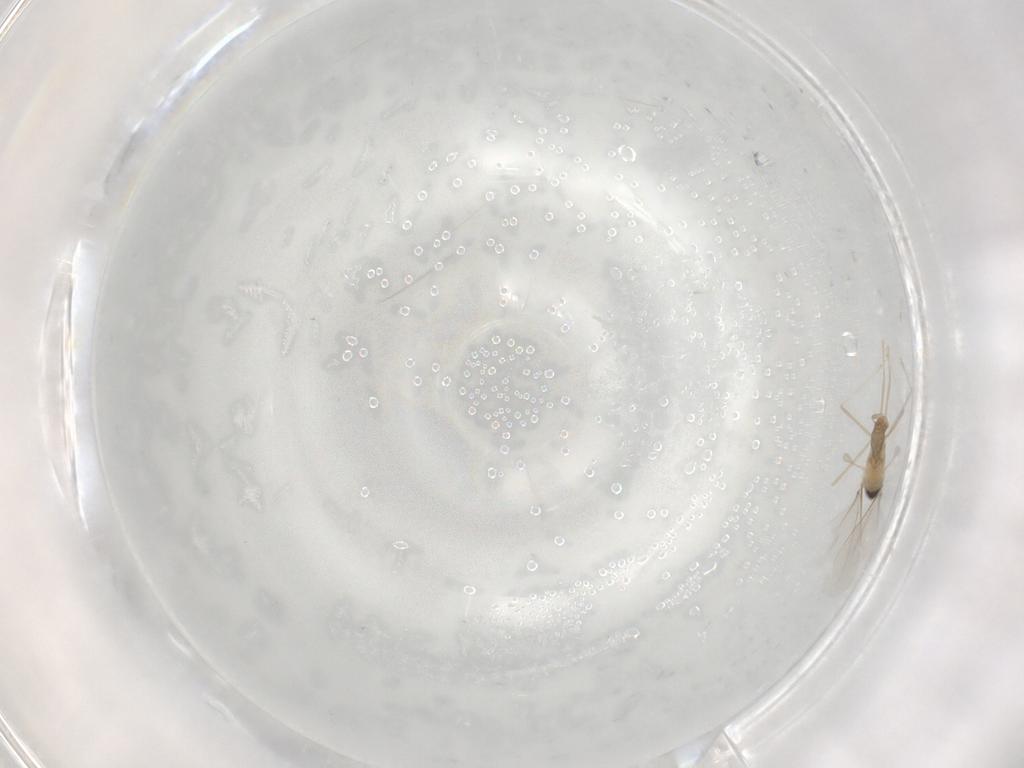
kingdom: Animalia
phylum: Arthropoda
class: Insecta
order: Diptera
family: Cecidomyiidae
